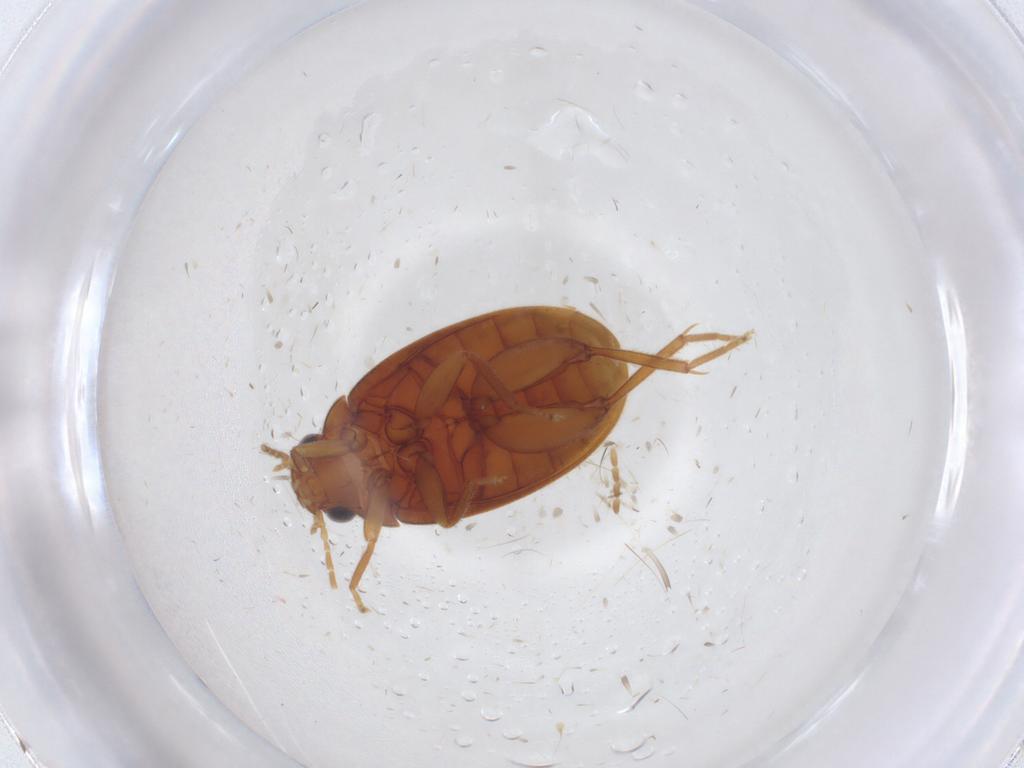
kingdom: Animalia
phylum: Arthropoda
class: Insecta
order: Coleoptera
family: Scirtidae
